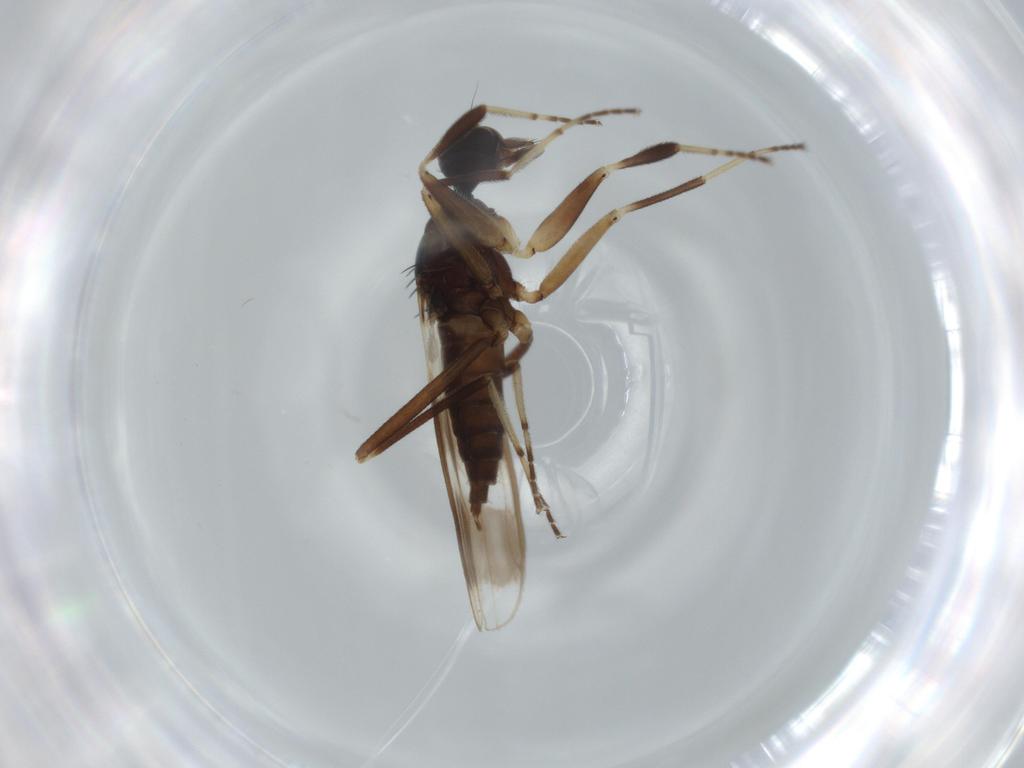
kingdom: Animalia
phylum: Arthropoda
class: Insecta
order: Diptera
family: Hybotidae
